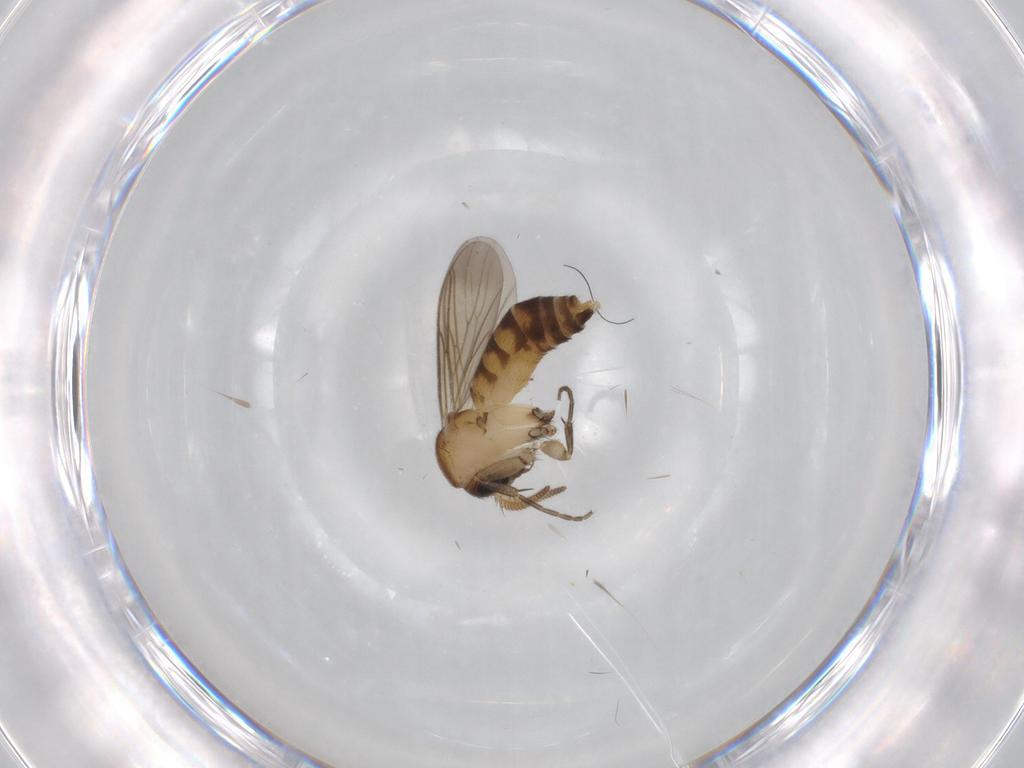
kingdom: Animalia
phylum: Arthropoda
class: Insecta
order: Diptera
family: Mycetophilidae
